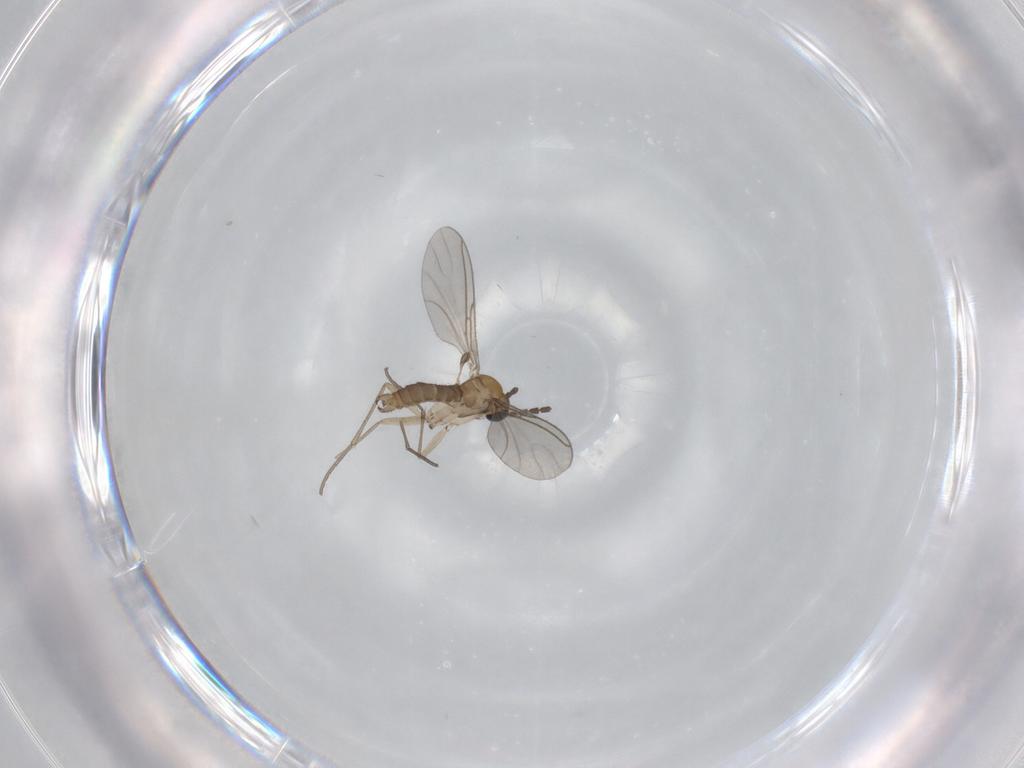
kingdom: Animalia
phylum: Arthropoda
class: Insecta
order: Diptera
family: Sciaridae
